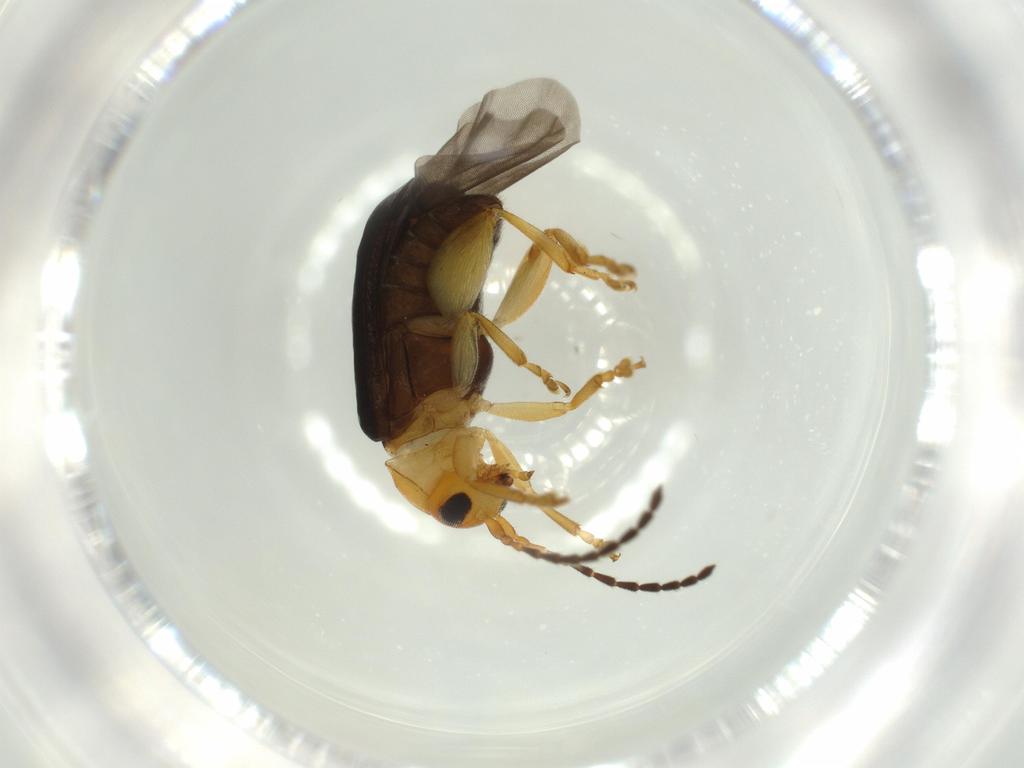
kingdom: Animalia
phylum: Arthropoda
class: Insecta
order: Coleoptera
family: Chrysomelidae
